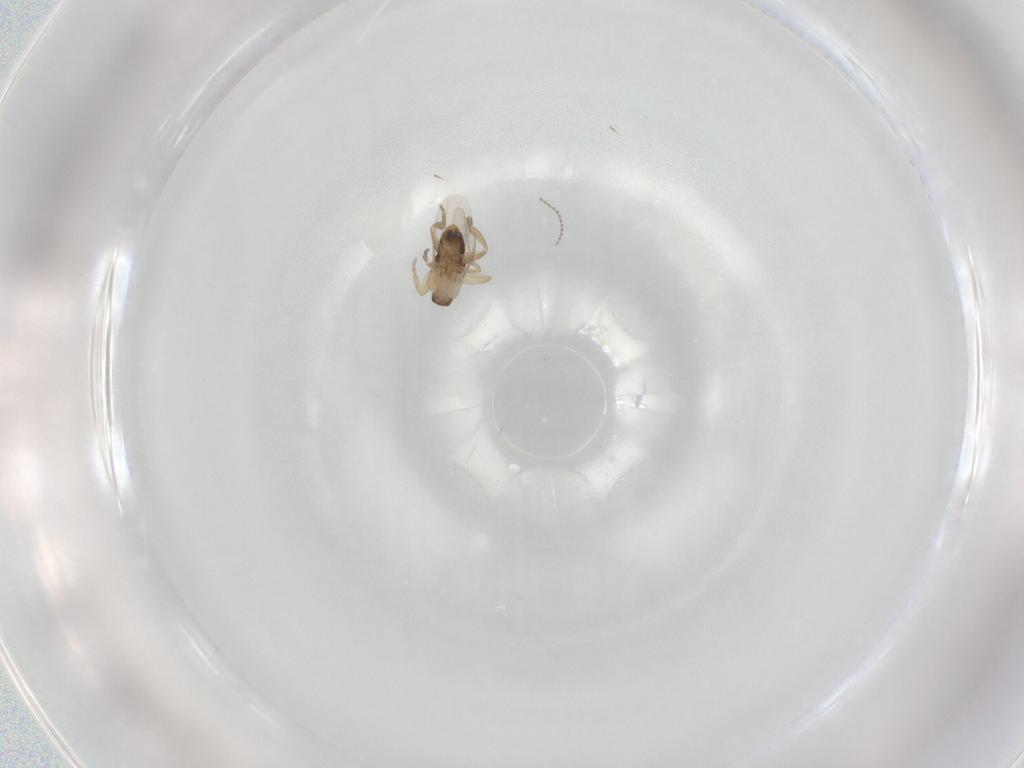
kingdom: Animalia
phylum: Arthropoda
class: Insecta
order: Diptera
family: Phoridae
